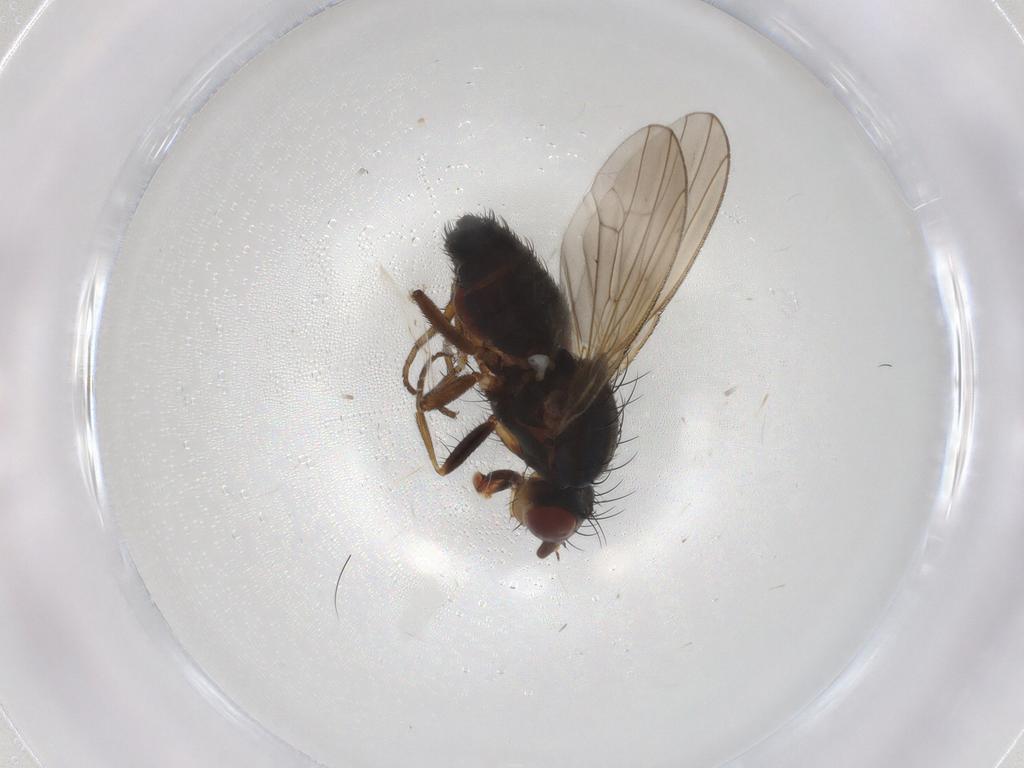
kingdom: Animalia
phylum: Arthropoda
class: Insecta
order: Diptera
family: Heleomyzidae
